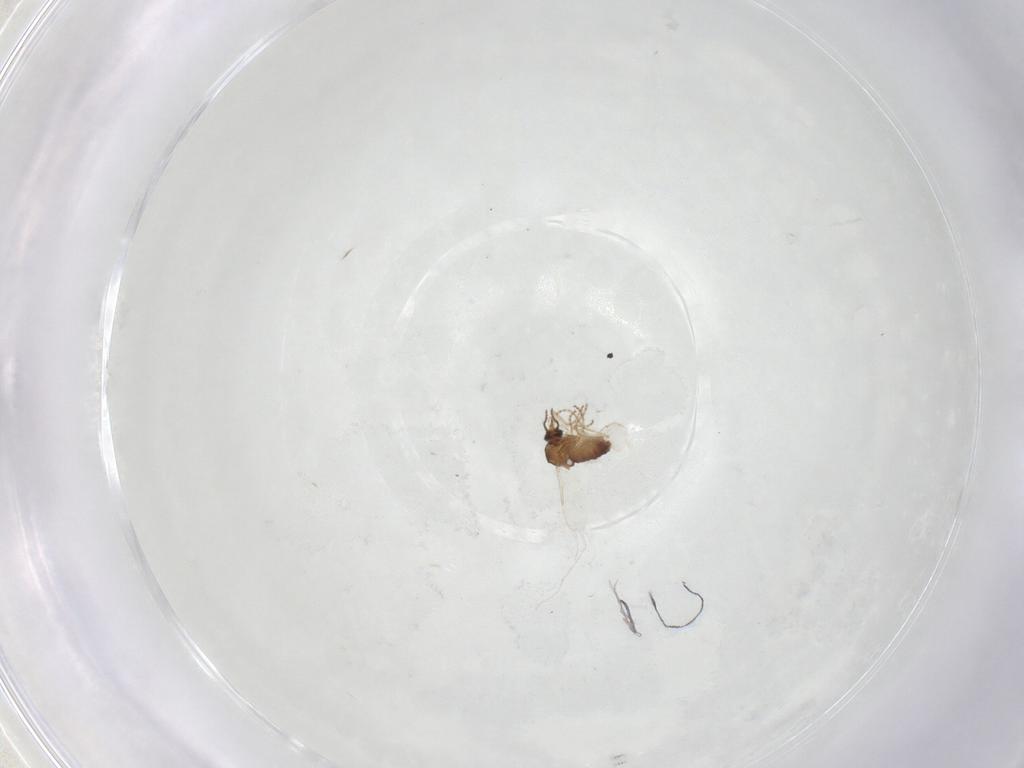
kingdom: Animalia
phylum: Arthropoda
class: Insecta
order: Diptera
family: Ceratopogonidae
